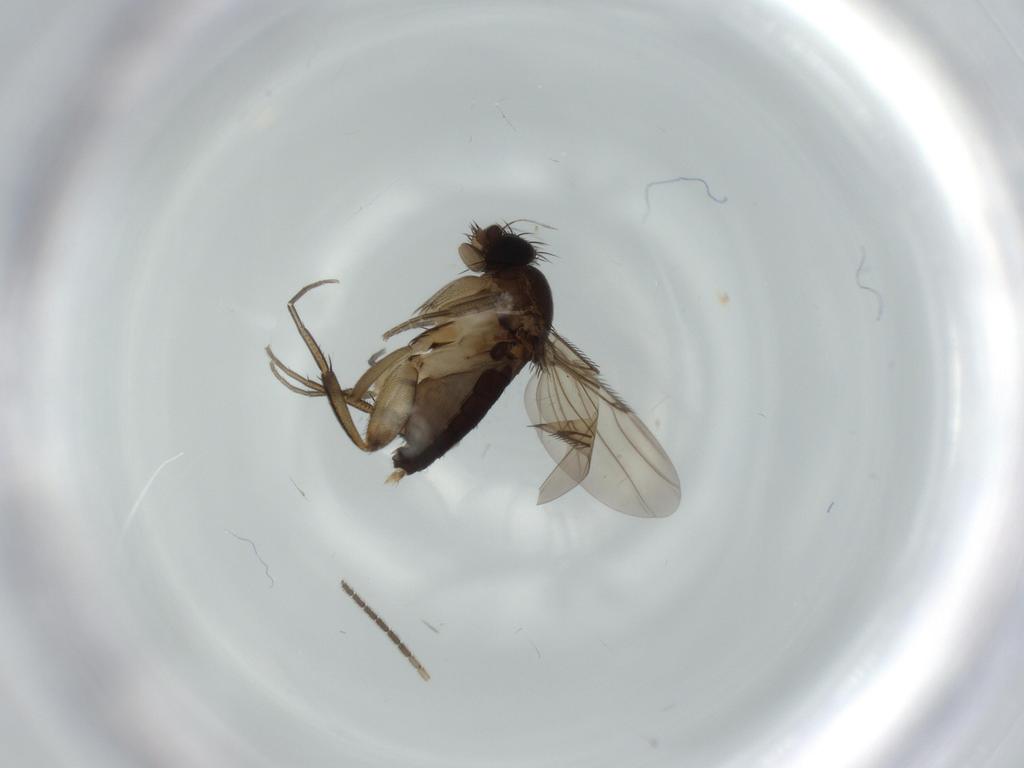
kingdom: Animalia
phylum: Arthropoda
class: Insecta
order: Diptera
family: Phoridae
